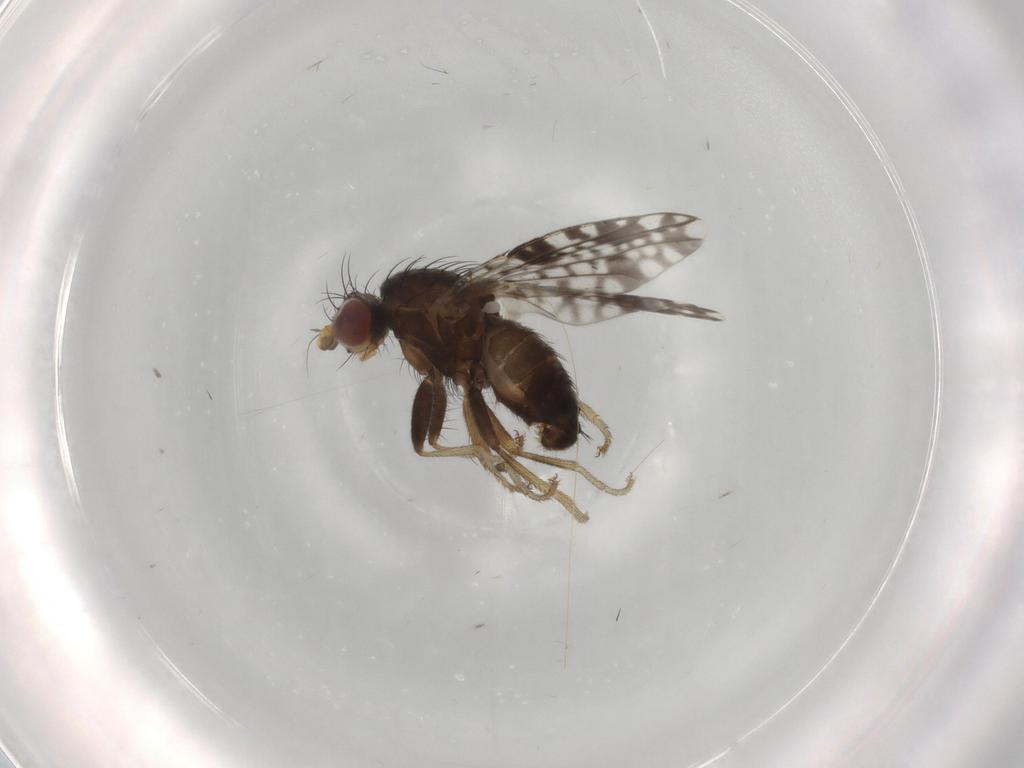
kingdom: Animalia
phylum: Arthropoda
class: Insecta
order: Diptera
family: Tephritidae
